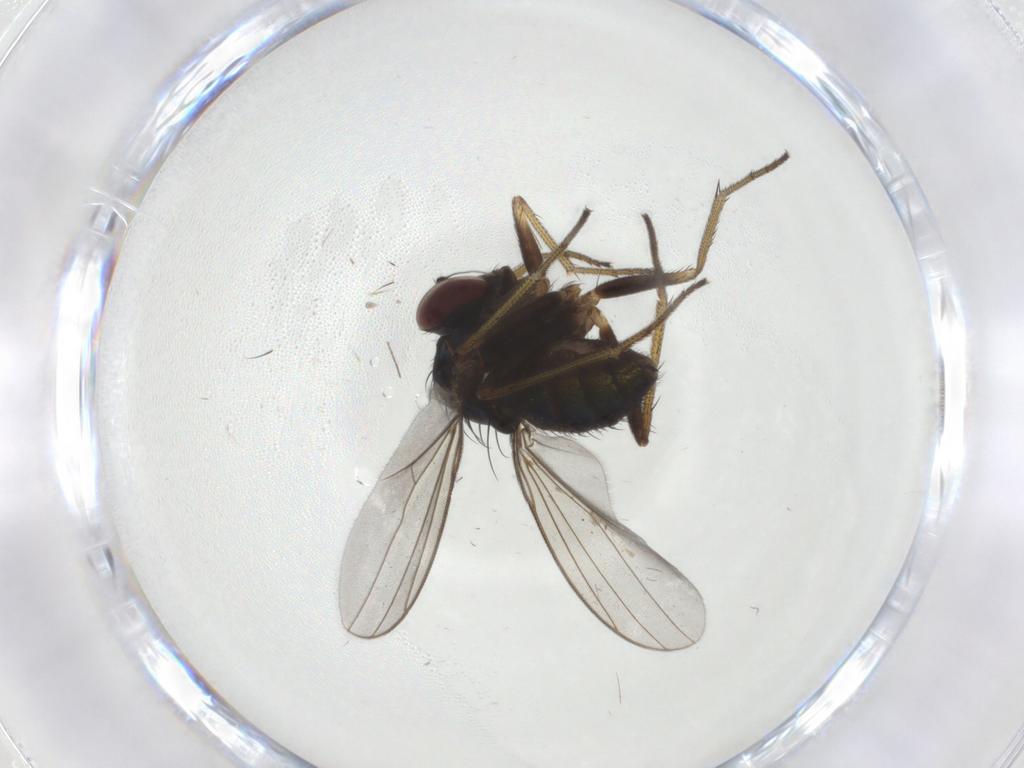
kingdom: Animalia
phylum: Arthropoda
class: Insecta
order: Diptera
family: Chironomidae
